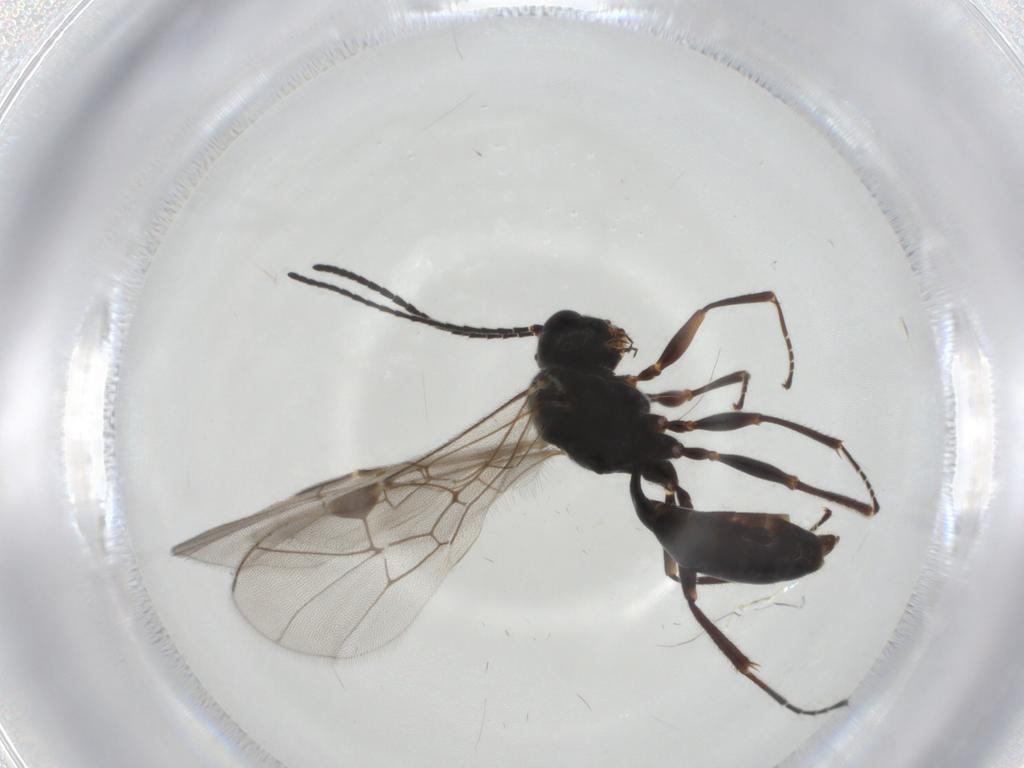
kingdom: Animalia
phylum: Arthropoda
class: Insecta
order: Hymenoptera
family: Ichneumonidae
